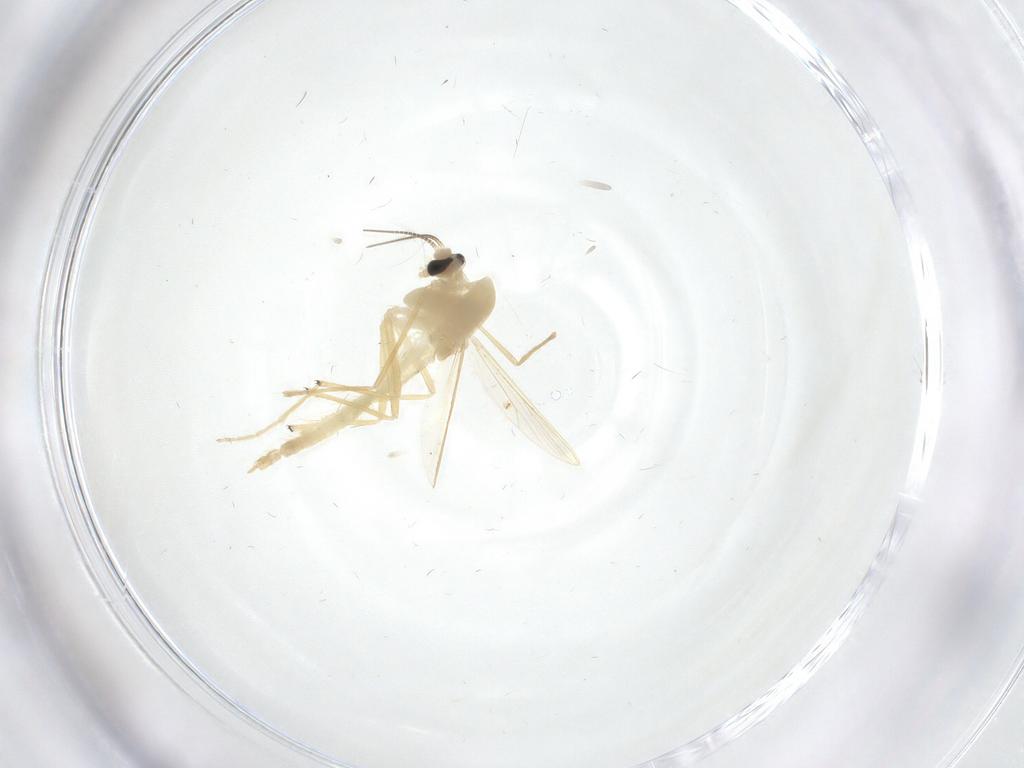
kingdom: Animalia
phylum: Arthropoda
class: Insecta
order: Diptera
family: Chironomidae
